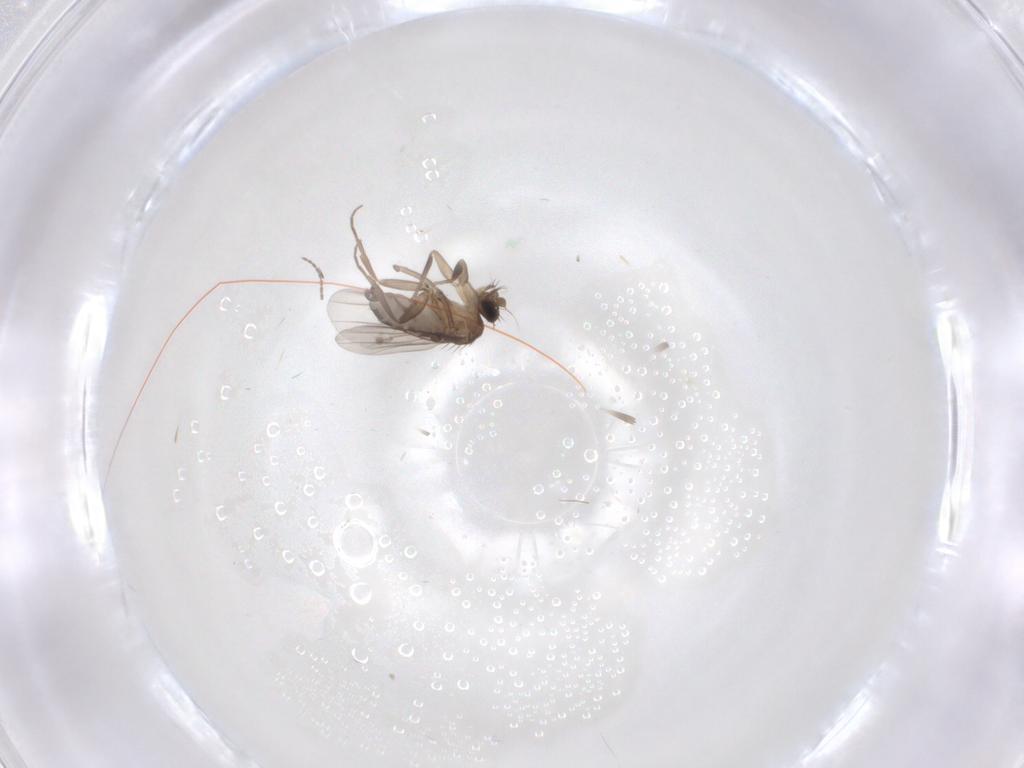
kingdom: Animalia
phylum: Arthropoda
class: Insecta
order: Diptera
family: Phoridae
